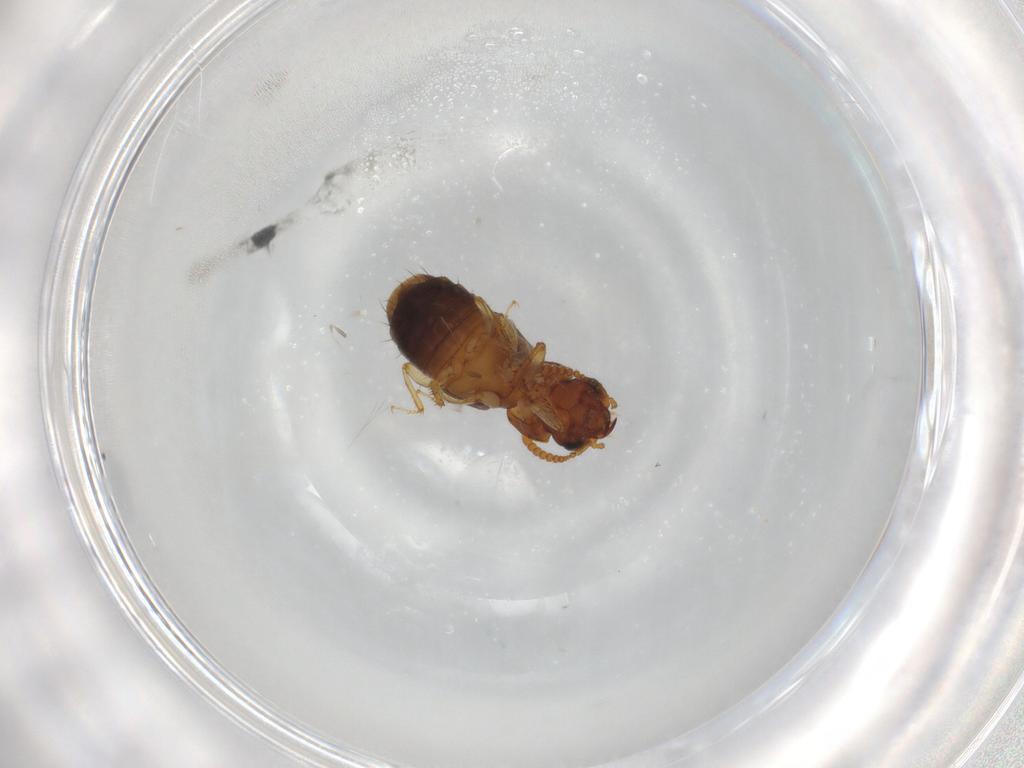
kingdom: Animalia
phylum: Arthropoda
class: Insecta
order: Coleoptera
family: Staphylinidae
